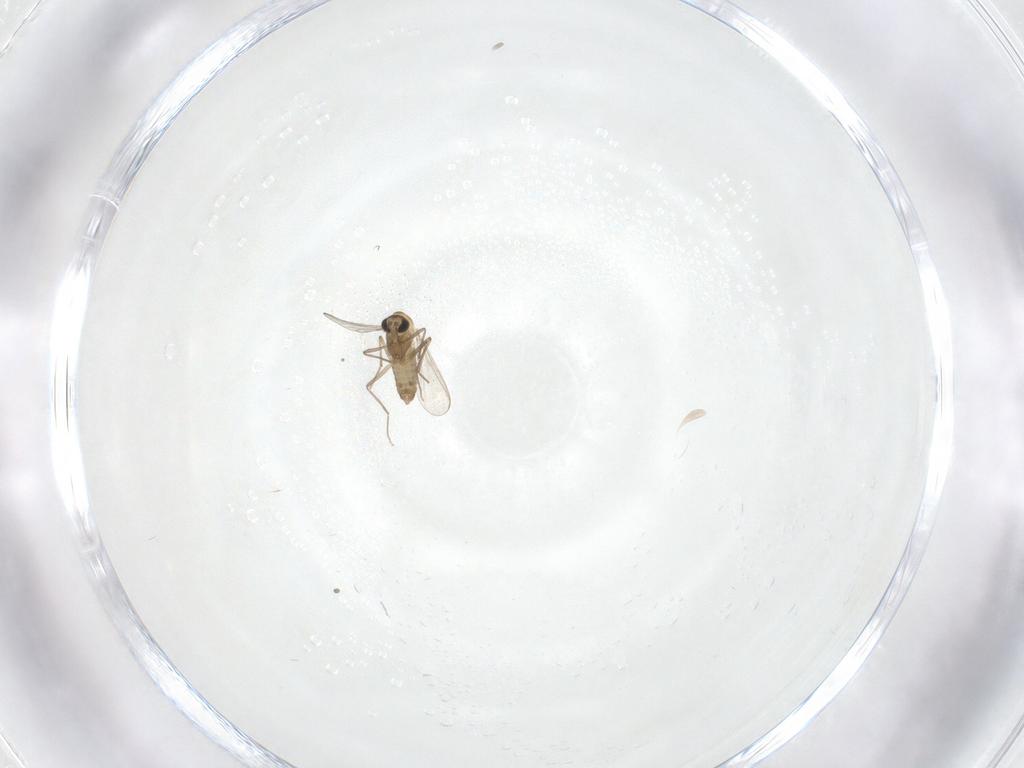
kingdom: Animalia
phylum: Arthropoda
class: Insecta
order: Diptera
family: Chironomidae
